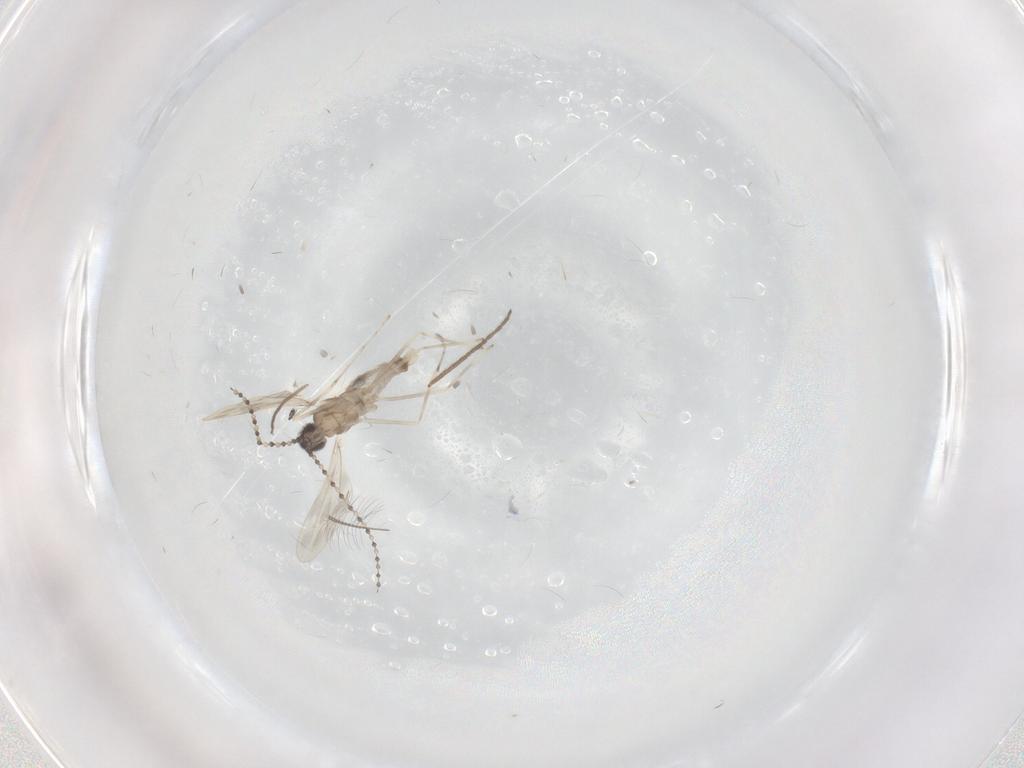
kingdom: Animalia
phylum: Arthropoda
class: Insecta
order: Diptera
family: Cecidomyiidae
